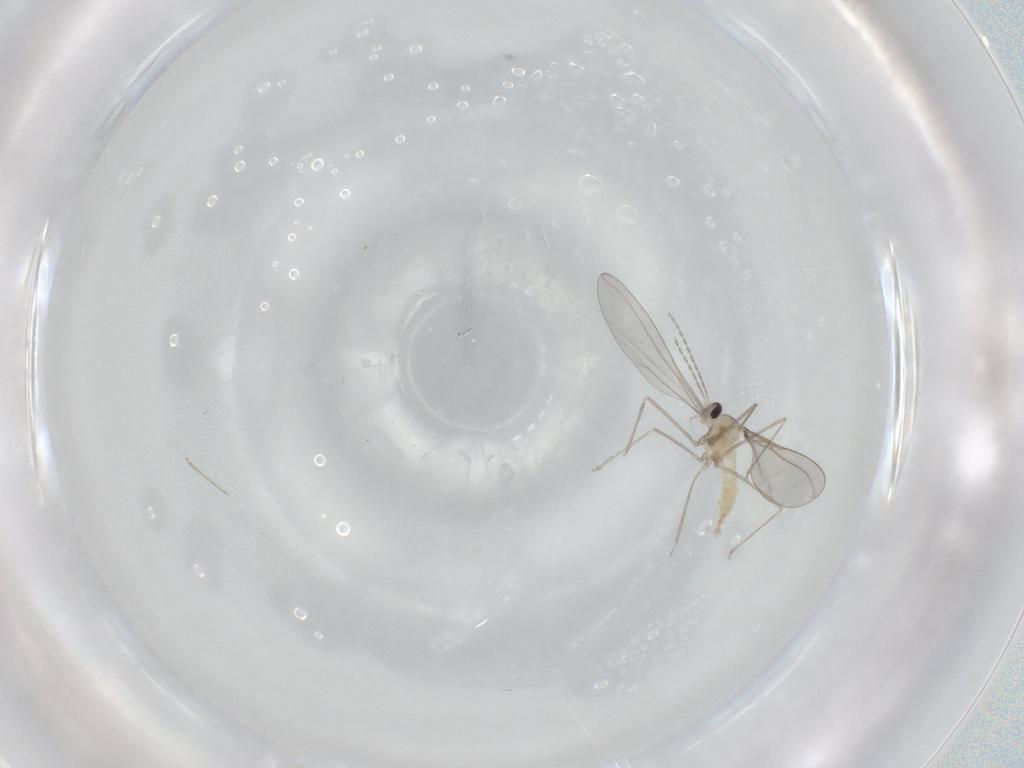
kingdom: Animalia
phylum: Arthropoda
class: Insecta
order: Diptera
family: Cecidomyiidae
